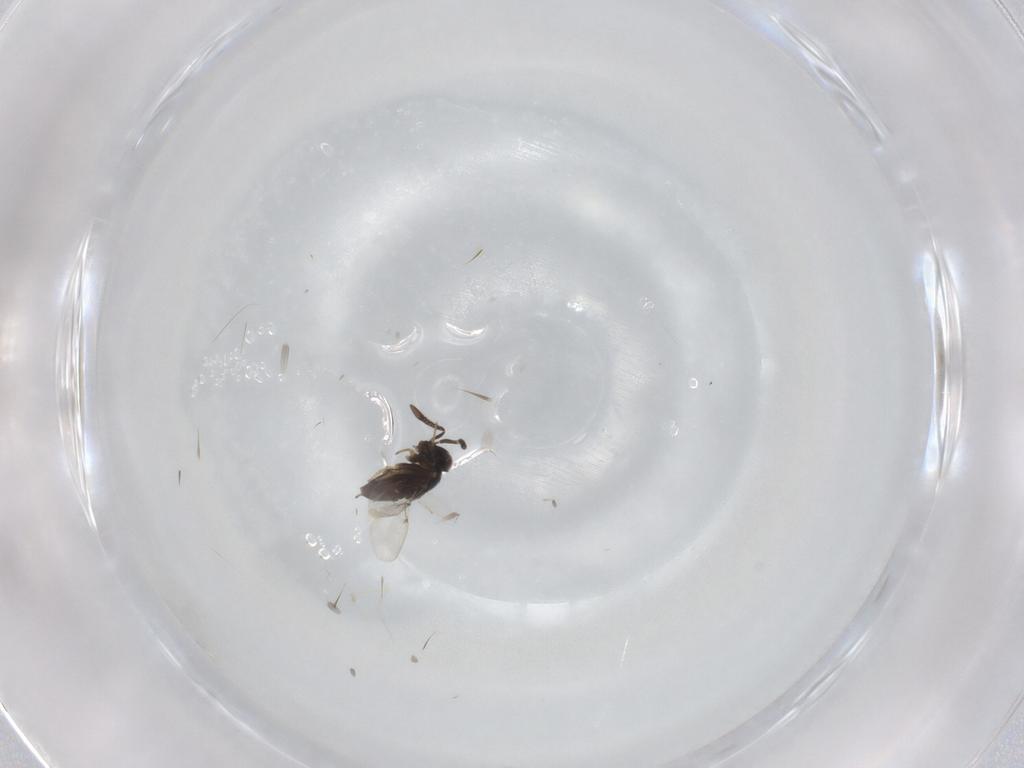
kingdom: Animalia
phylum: Arthropoda
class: Insecta
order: Hymenoptera
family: Encyrtidae
